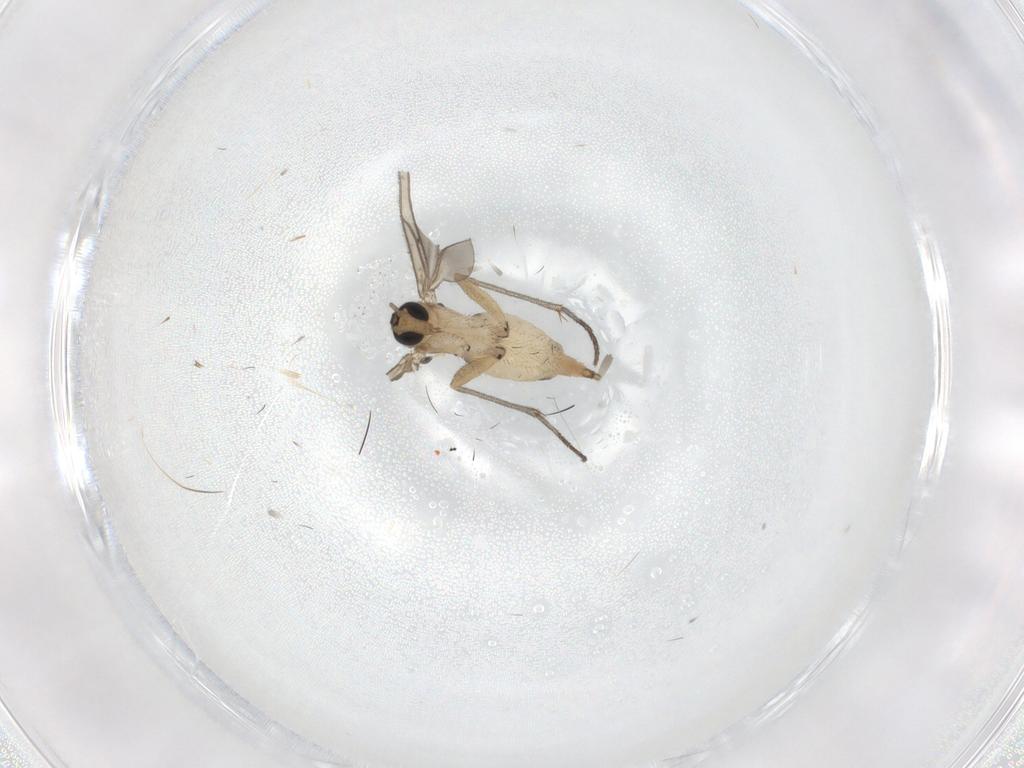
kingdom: Animalia
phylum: Arthropoda
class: Insecta
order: Diptera
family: Sciaridae
